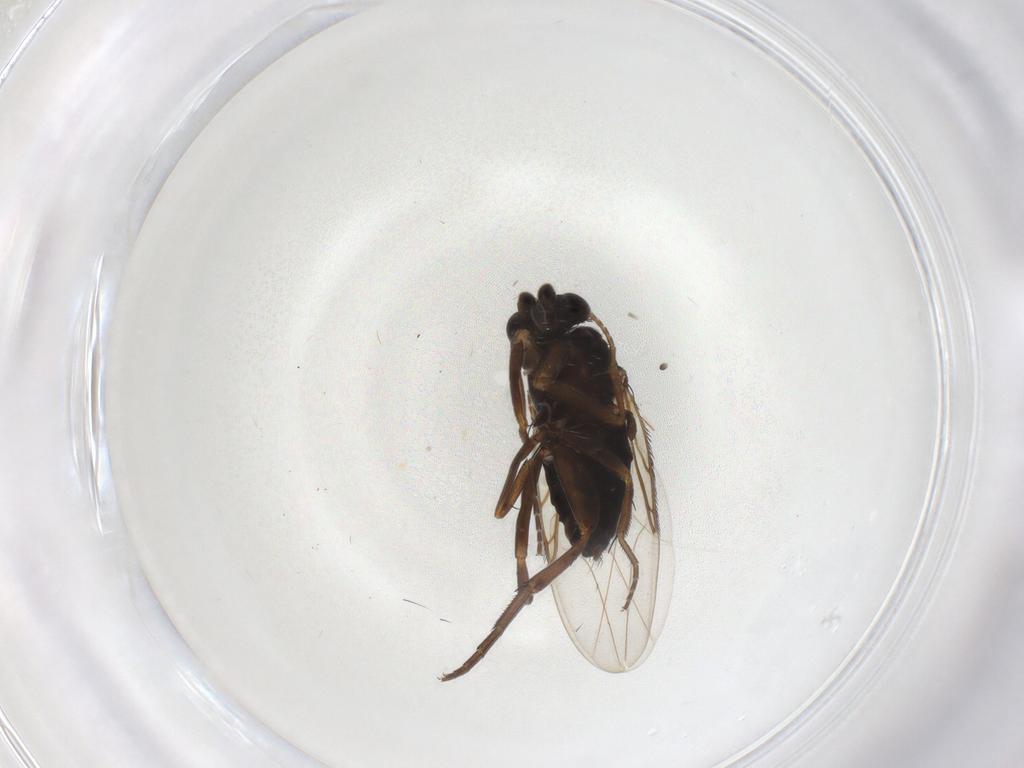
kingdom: Animalia
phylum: Arthropoda
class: Insecta
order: Diptera
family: Phoridae
